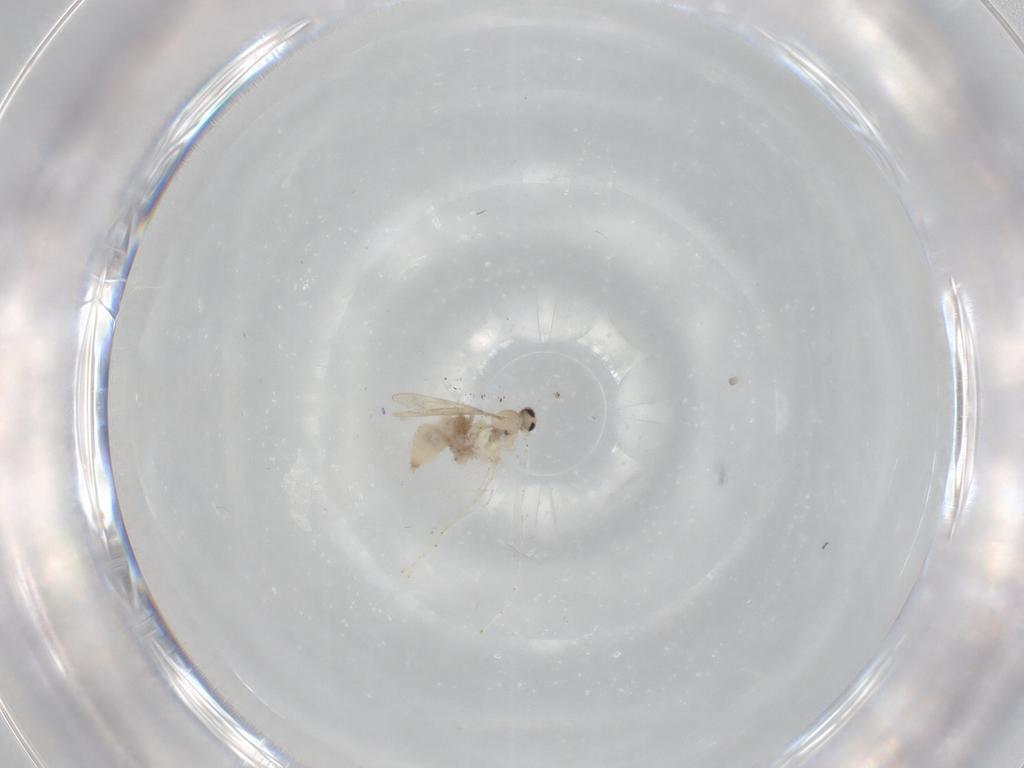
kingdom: Animalia
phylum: Arthropoda
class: Insecta
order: Diptera
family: Cecidomyiidae
